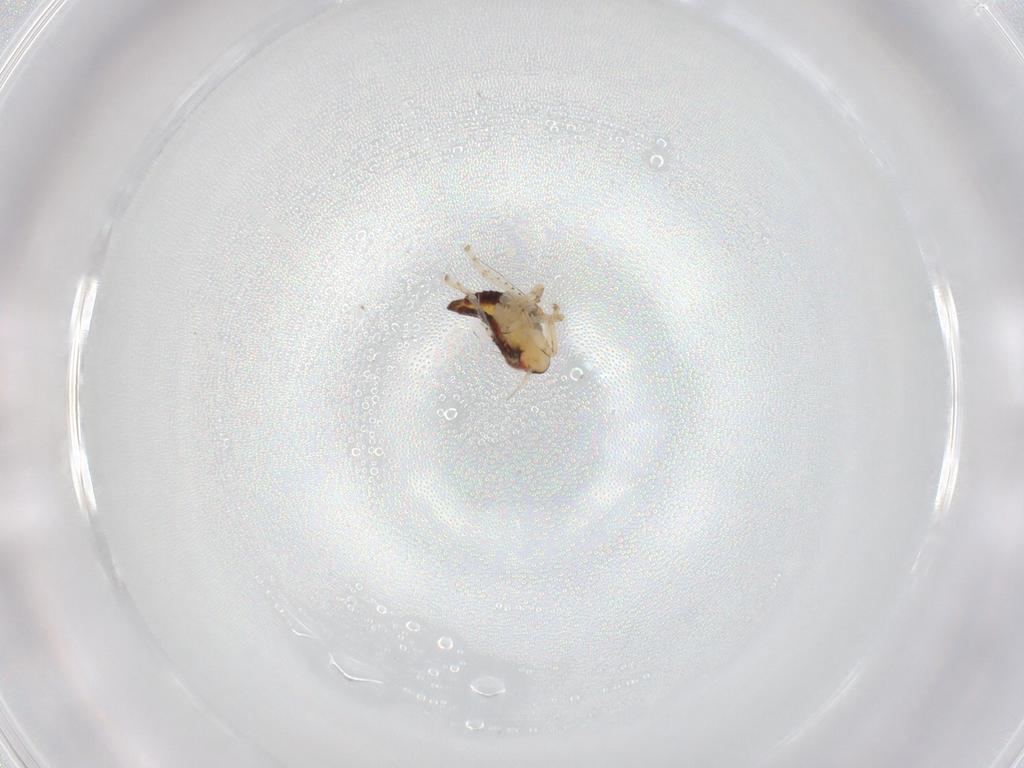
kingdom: Animalia
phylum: Arthropoda
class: Insecta
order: Hemiptera
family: Cicadellidae
